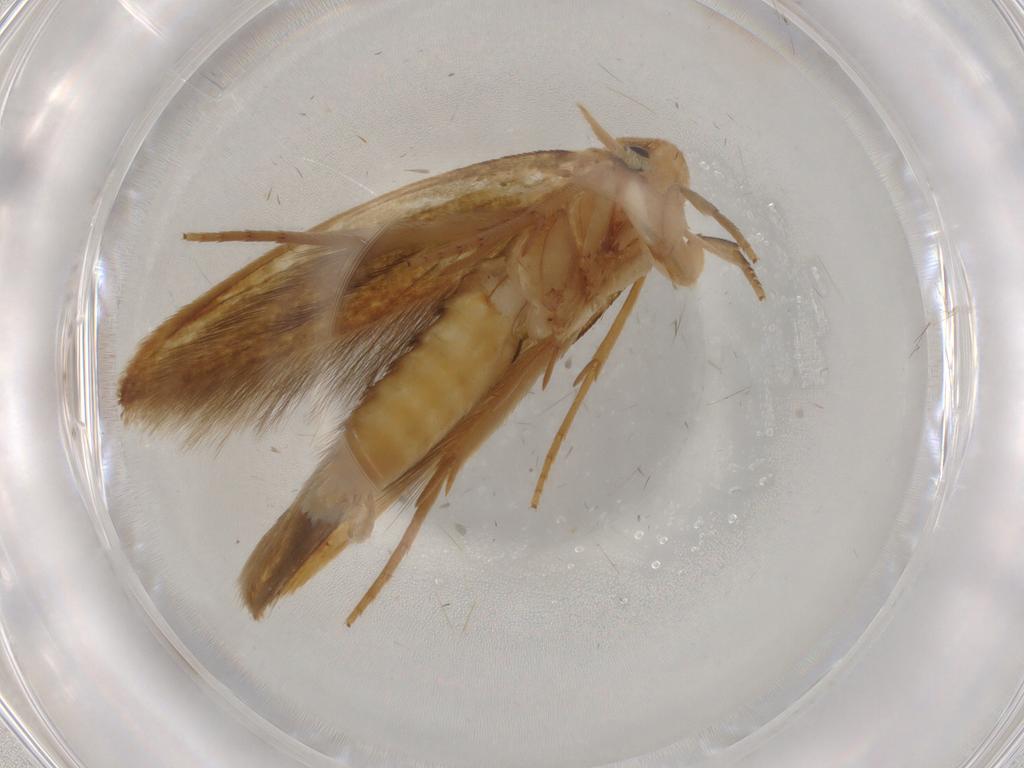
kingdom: Animalia
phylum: Arthropoda
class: Insecta
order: Lepidoptera
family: Tineidae
